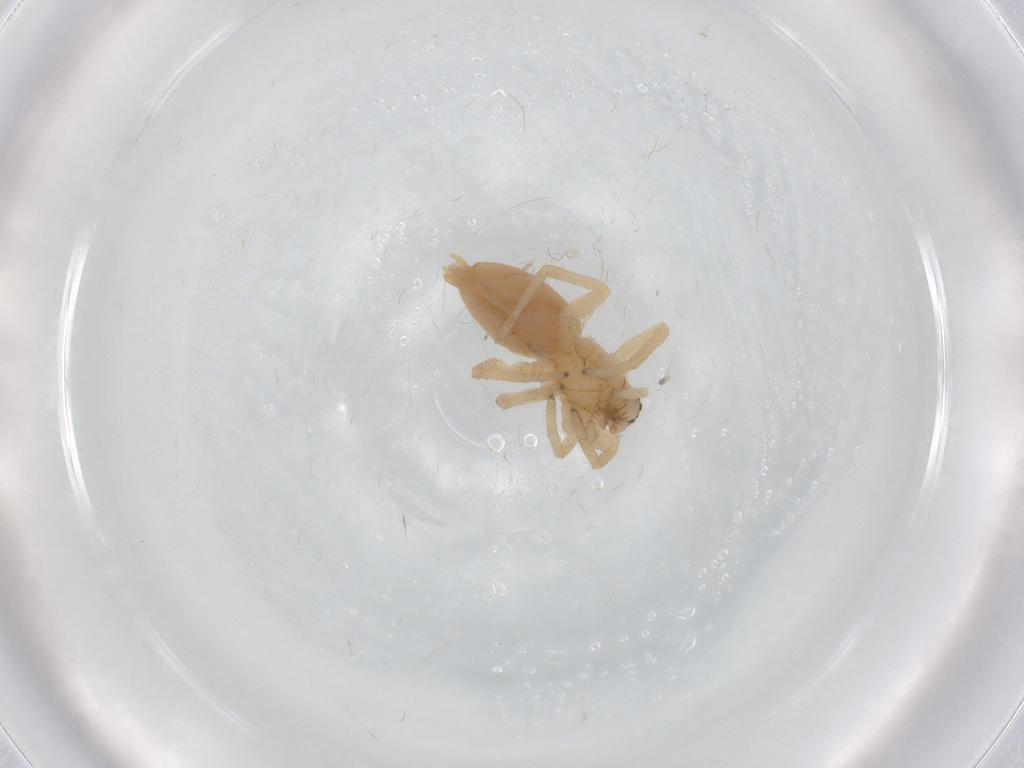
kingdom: Animalia
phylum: Arthropoda
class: Arachnida
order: Araneae
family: Clubionidae
